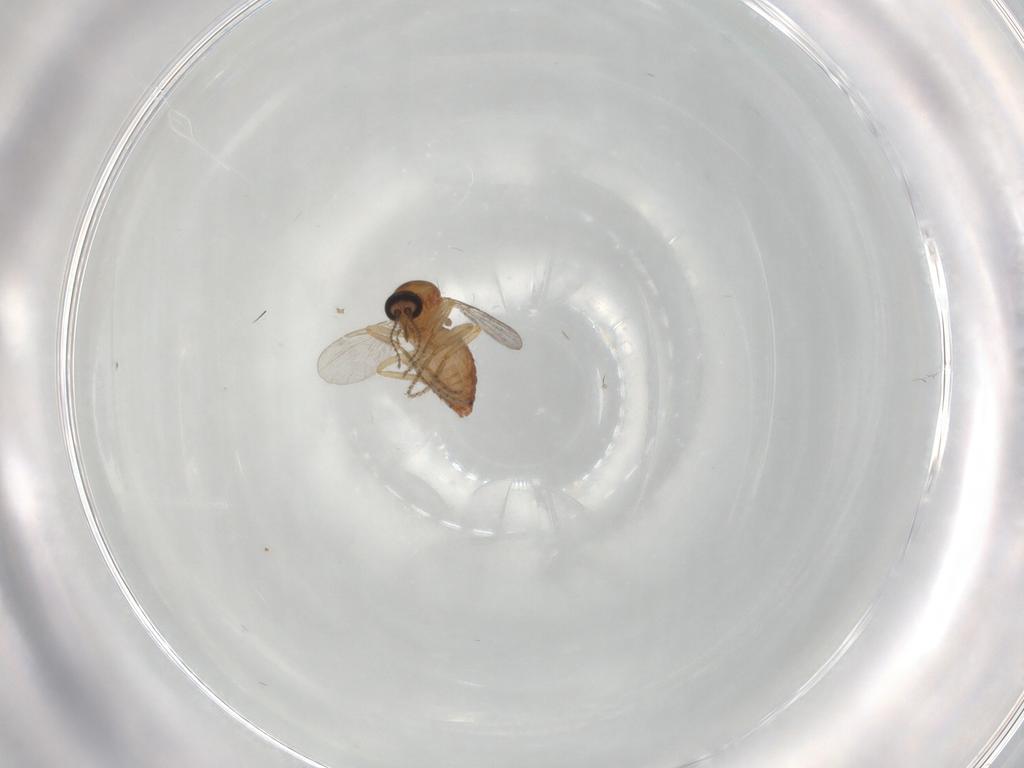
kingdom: Animalia
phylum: Arthropoda
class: Insecta
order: Diptera
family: Ceratopogonidae
